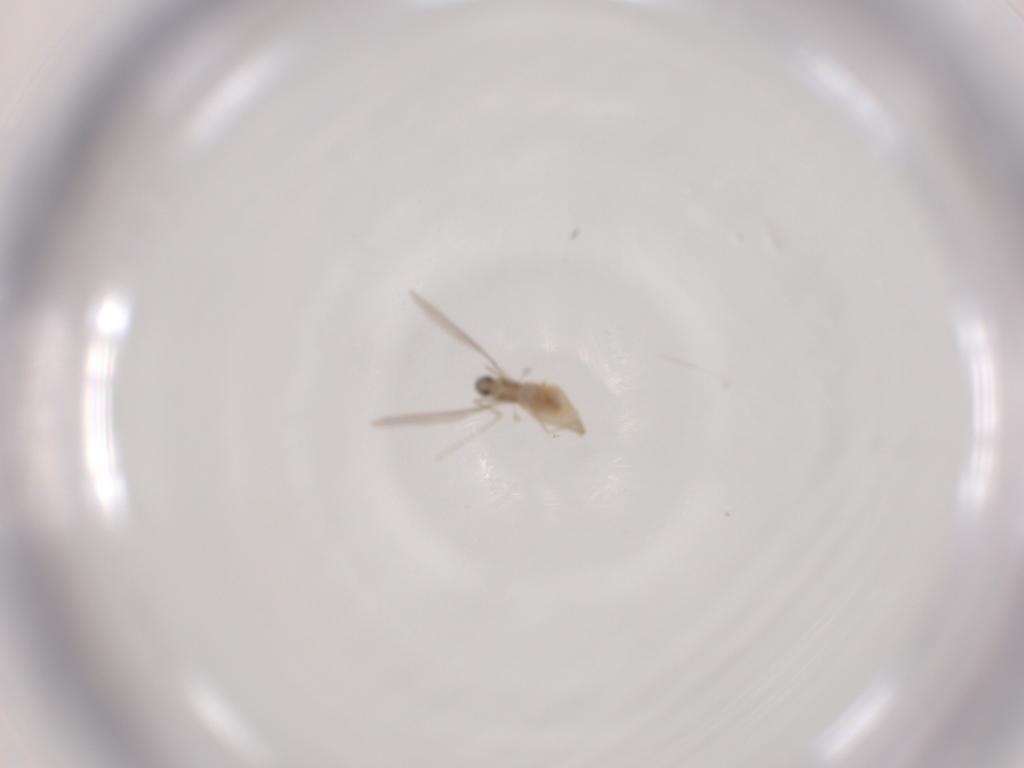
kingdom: Animalia
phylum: Arthropoda
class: Insecta
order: Diptera
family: Cecidomyiidae
